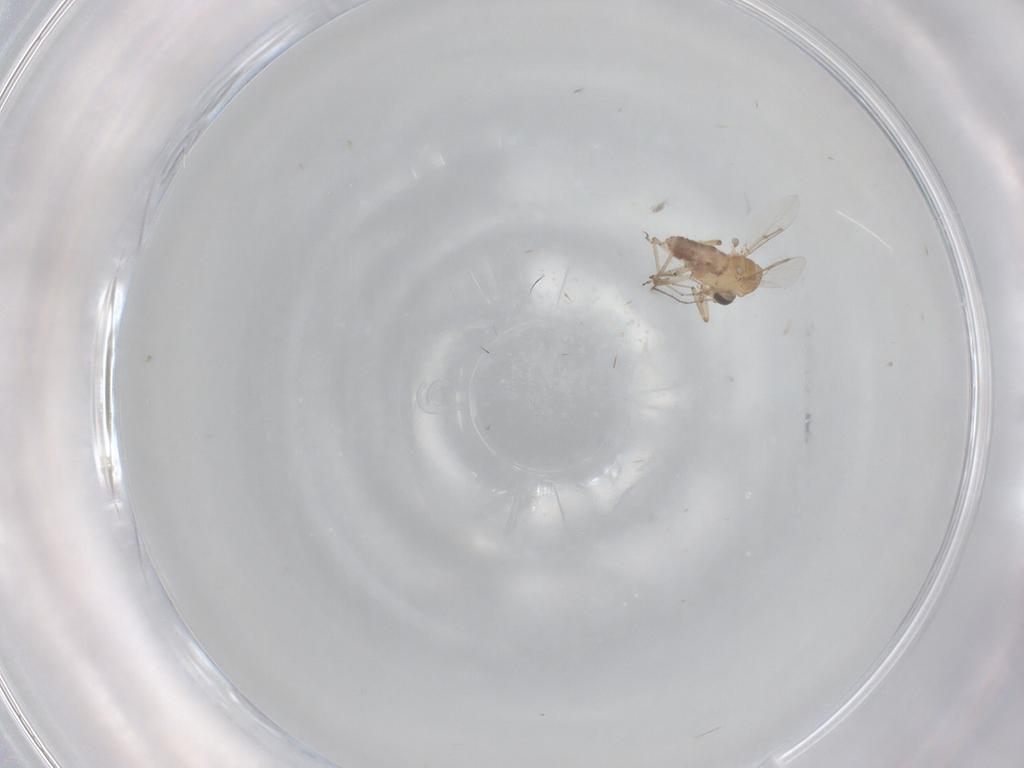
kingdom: Animalia
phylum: Arthropoda
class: Insecta
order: Diptera
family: Ceratopogonidae
